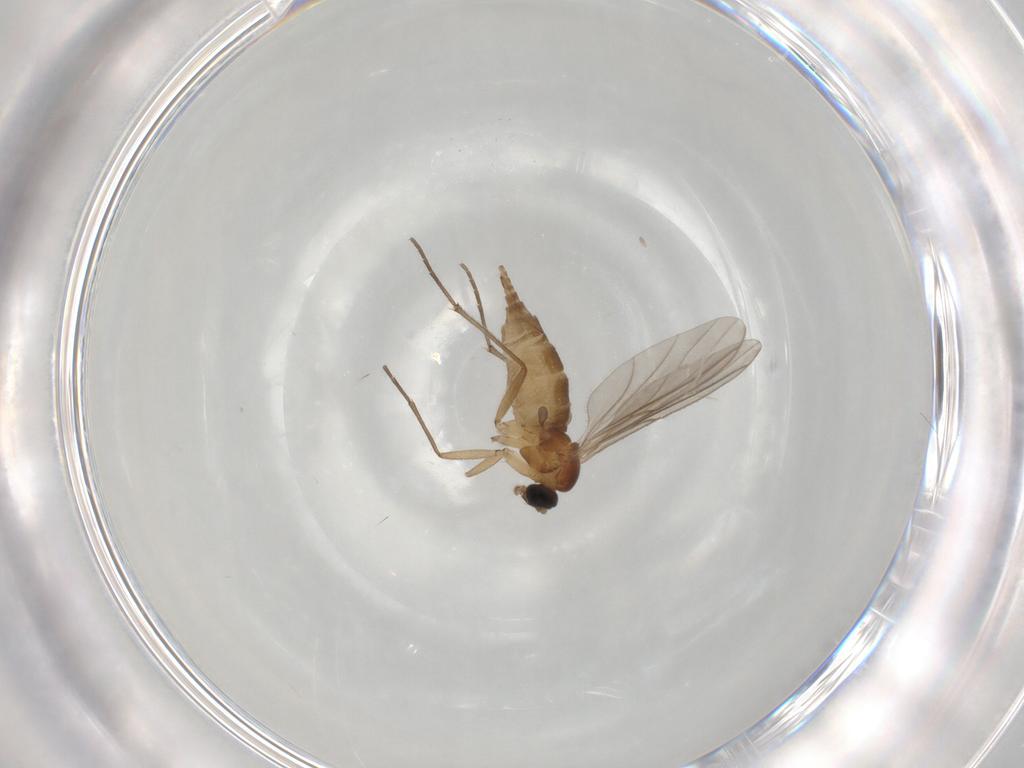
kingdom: Animalia
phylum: Arthropoda
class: Insecta
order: Diptera
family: Sciaridae
